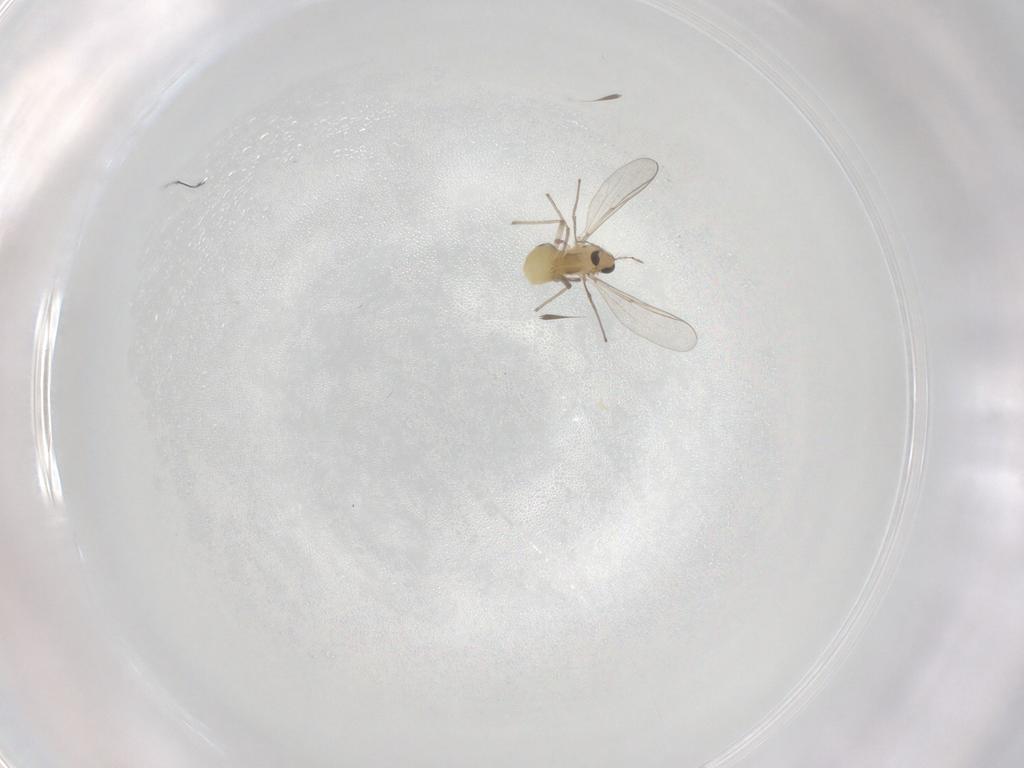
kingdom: Animalia
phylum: Arthropoda
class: Insecta
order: Diptera
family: Chironomidae
